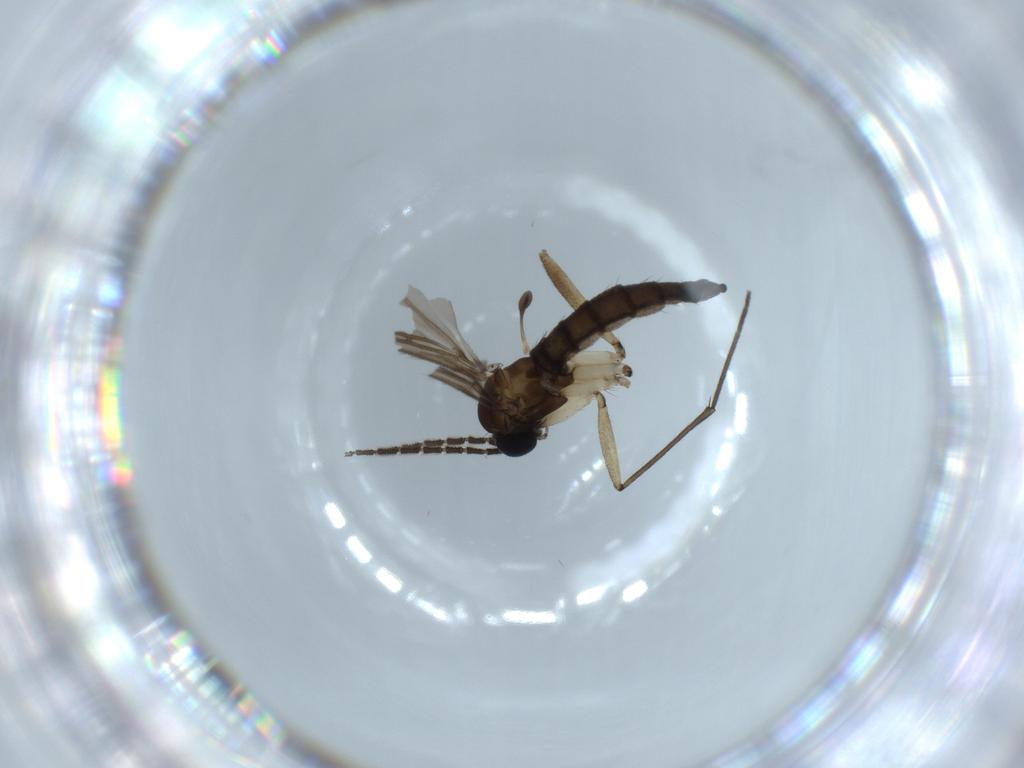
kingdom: Animalia
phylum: Arthropoda
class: Insecta
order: Diptera
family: Sciaridae
